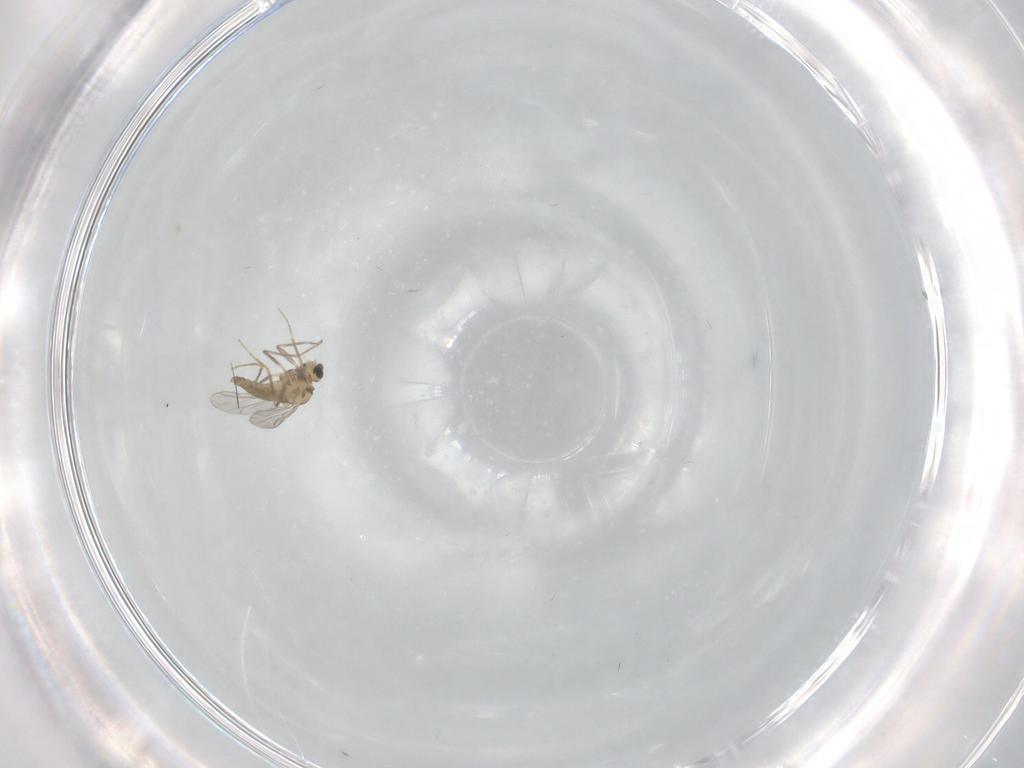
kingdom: Animalia
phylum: Arthropoda
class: Insecta
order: Diptera
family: Chironomidae
